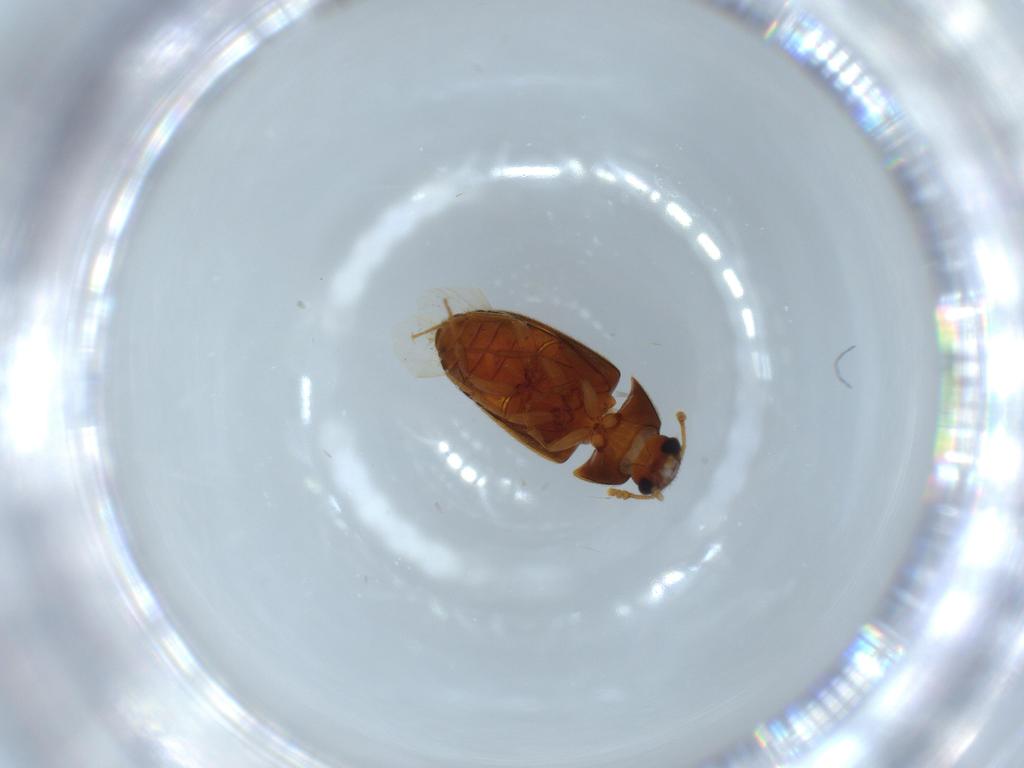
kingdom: Animalia
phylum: Arthropoda
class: Insecta
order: Coleoptera
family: Mycetophagidae
